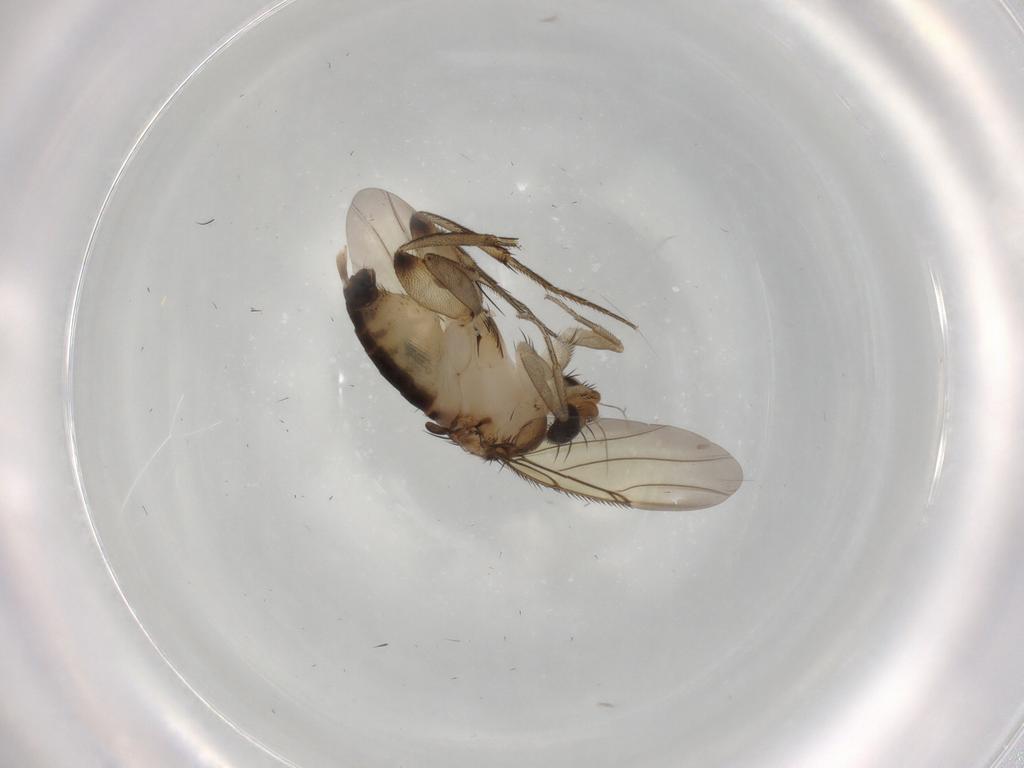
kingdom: Animalia
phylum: Arthropoda
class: Insecta
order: Diptera
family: Phoridae
